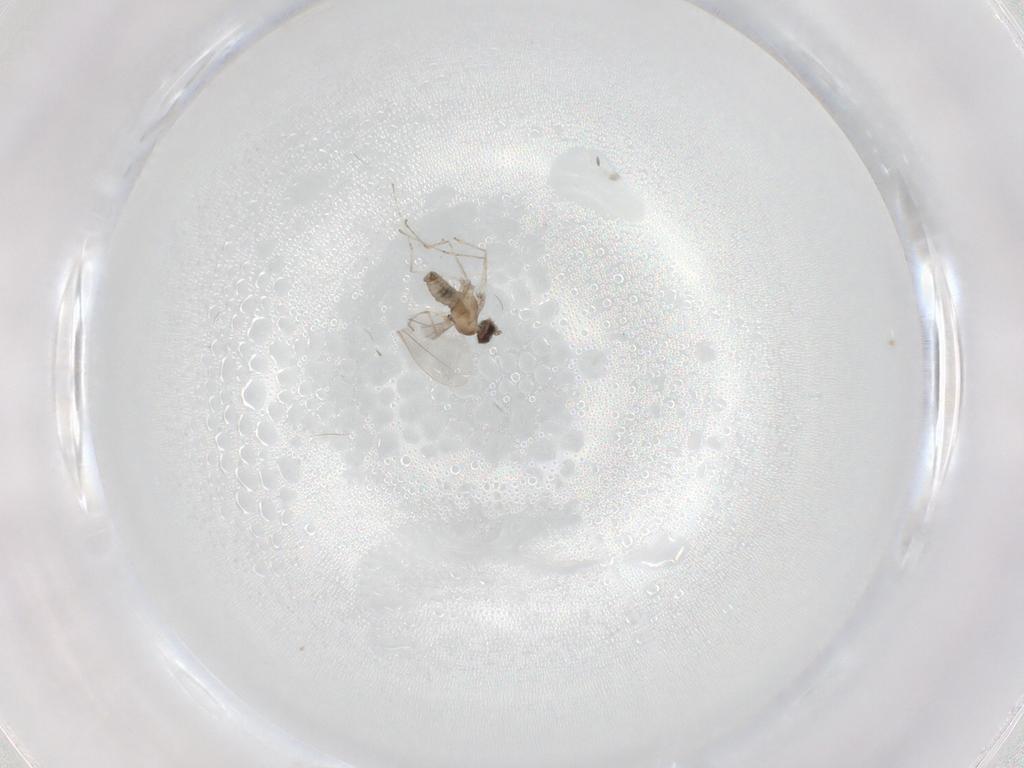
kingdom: Animalia
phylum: Arthropoda
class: Insecta
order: Diptera
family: Cecidomyiidae
